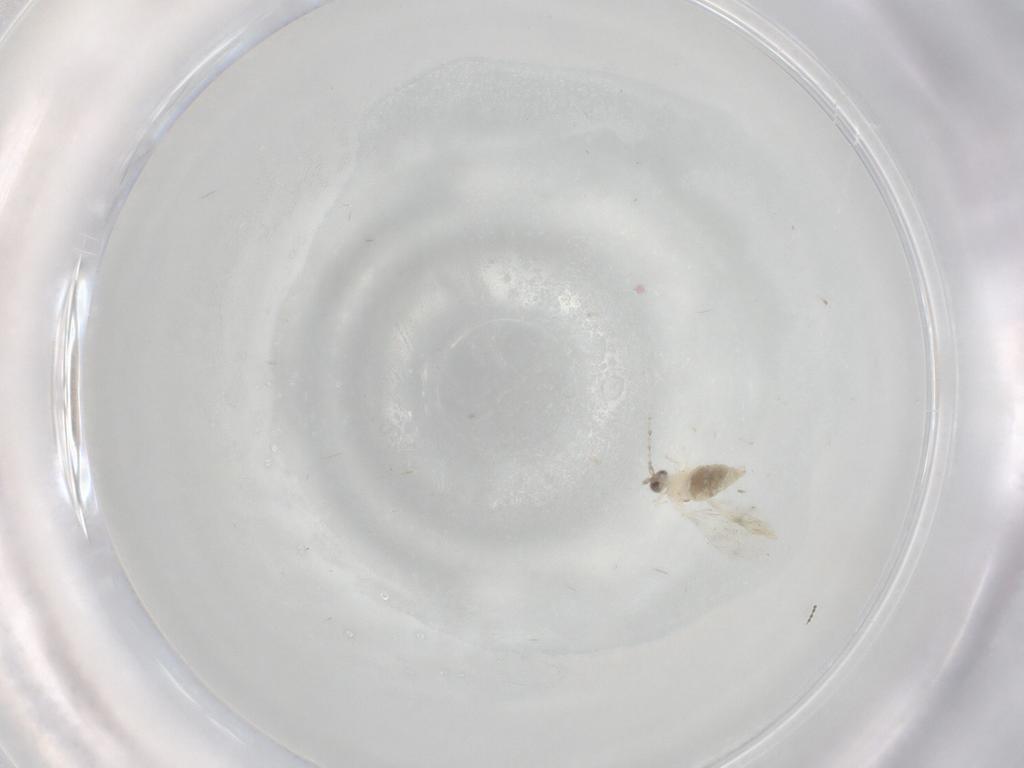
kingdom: Animalia
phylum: Arthropoda
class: Insecta
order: Diptera
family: Cecidomyiidae
